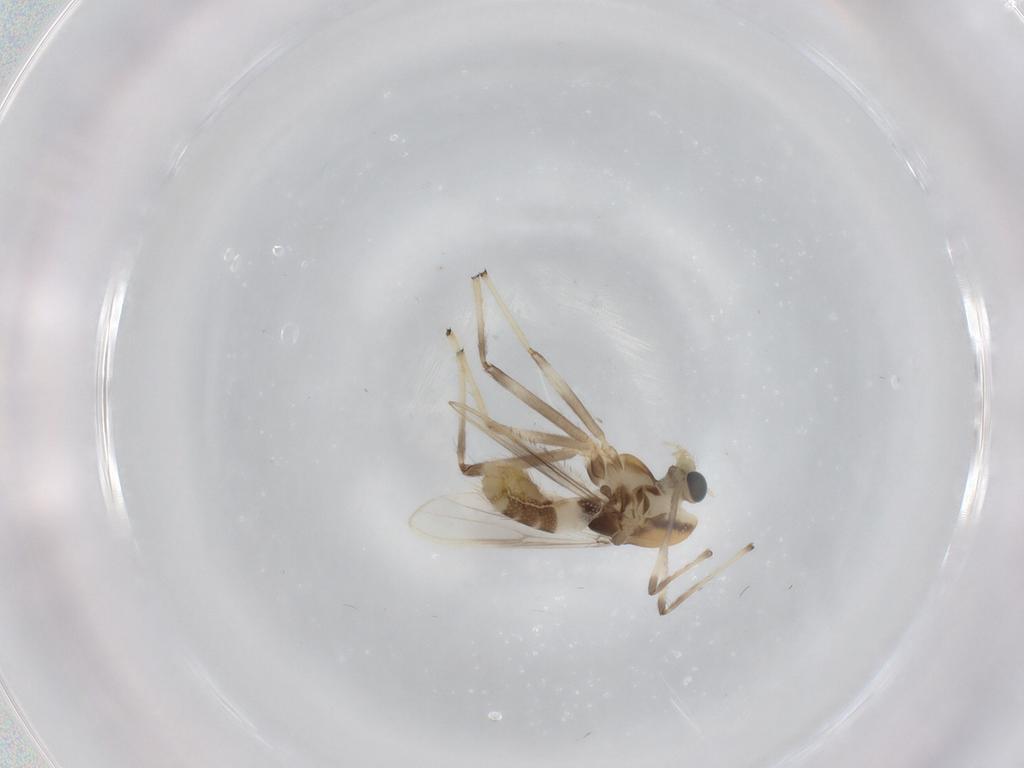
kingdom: Animalia
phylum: Arthropoda
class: Insecta
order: Diptera
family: Chironomidae
